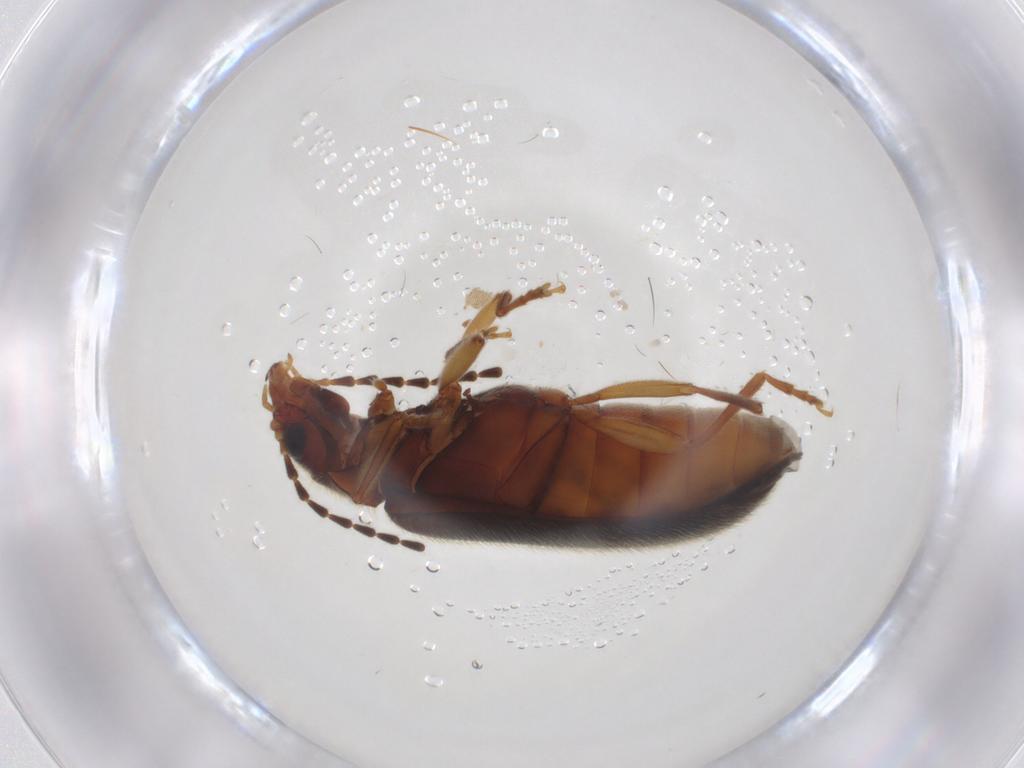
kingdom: Animalia
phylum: Arthropoda
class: Insecta
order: Coleoptera
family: Scirtidae
